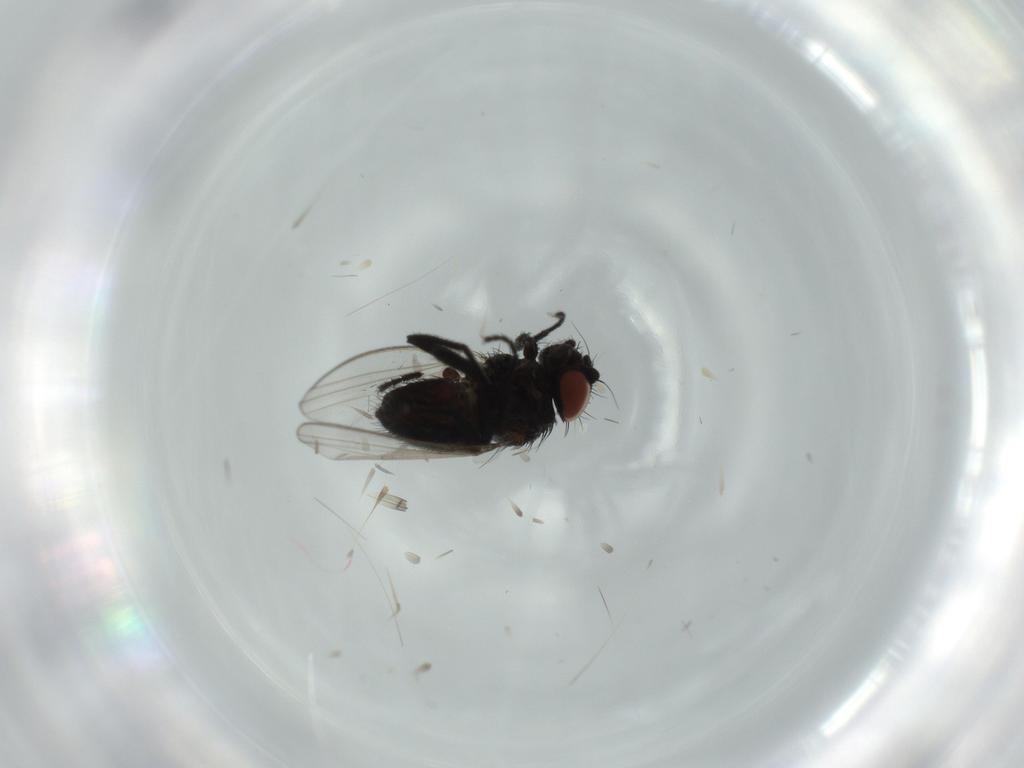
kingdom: Animalia
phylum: Arthropoda
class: Insecta
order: Diptera
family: Milichiidae
